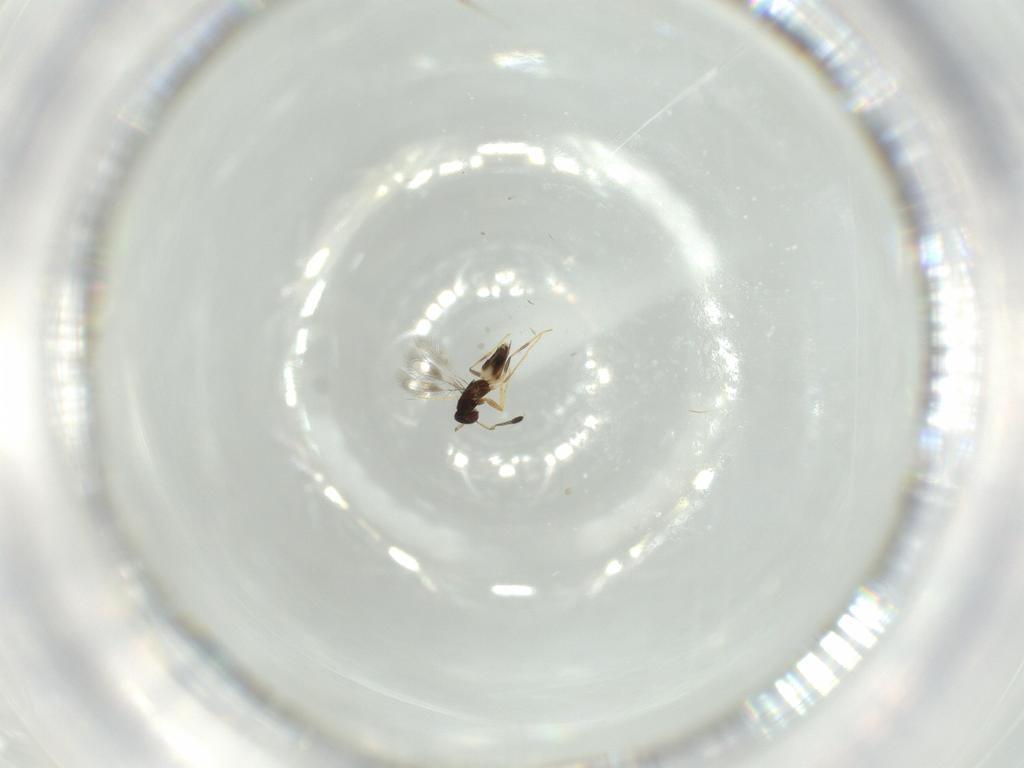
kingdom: Animalia
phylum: Arthropoda
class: Insecta
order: Hymenoptera
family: Mymaridae
